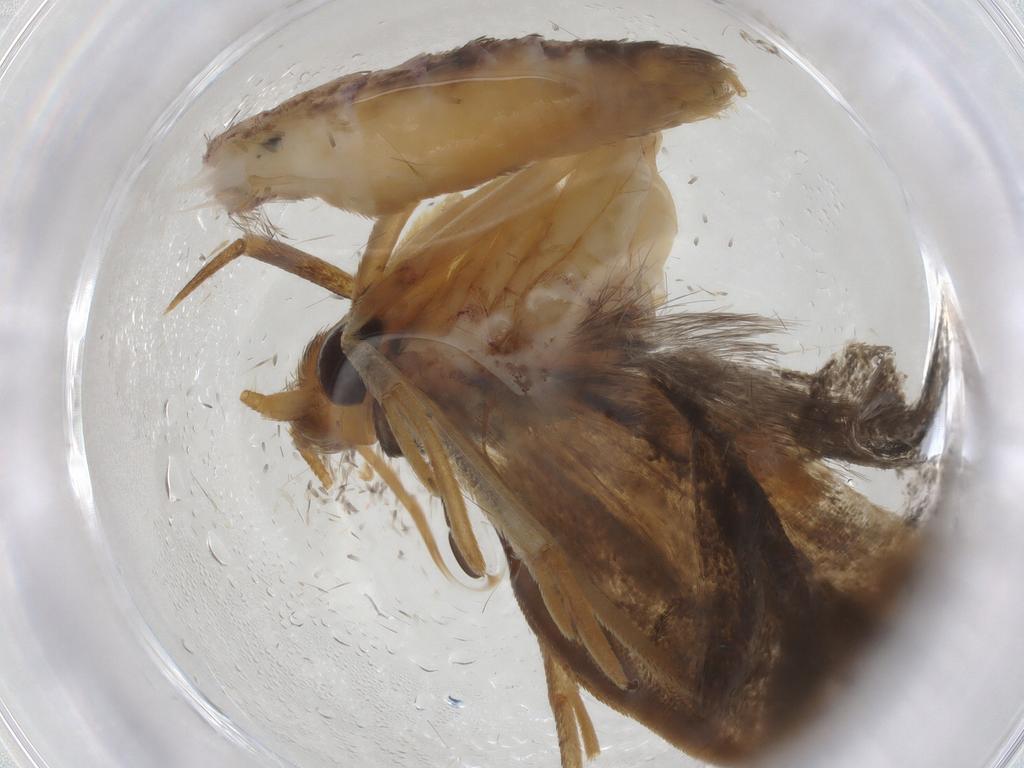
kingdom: Animalia
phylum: Arthropoda
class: Insecta
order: Lepidoptera
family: Depressariidae
